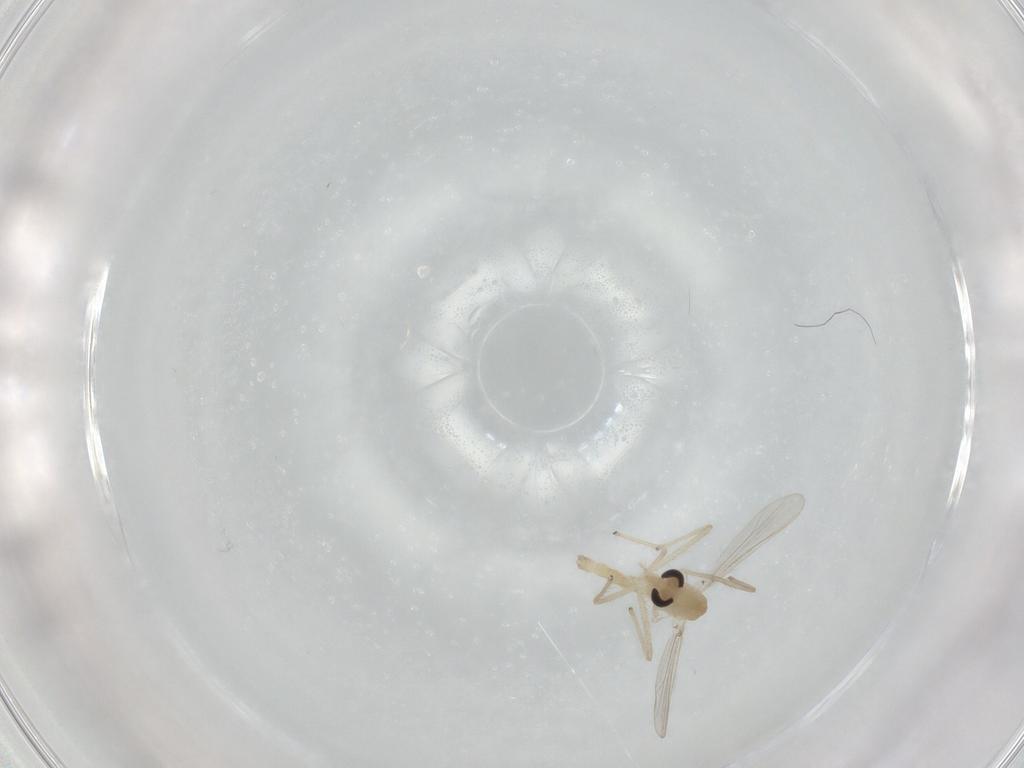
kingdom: Animalia
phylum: Arthropoda
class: Insecta
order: Diptera
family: Chironomidae
